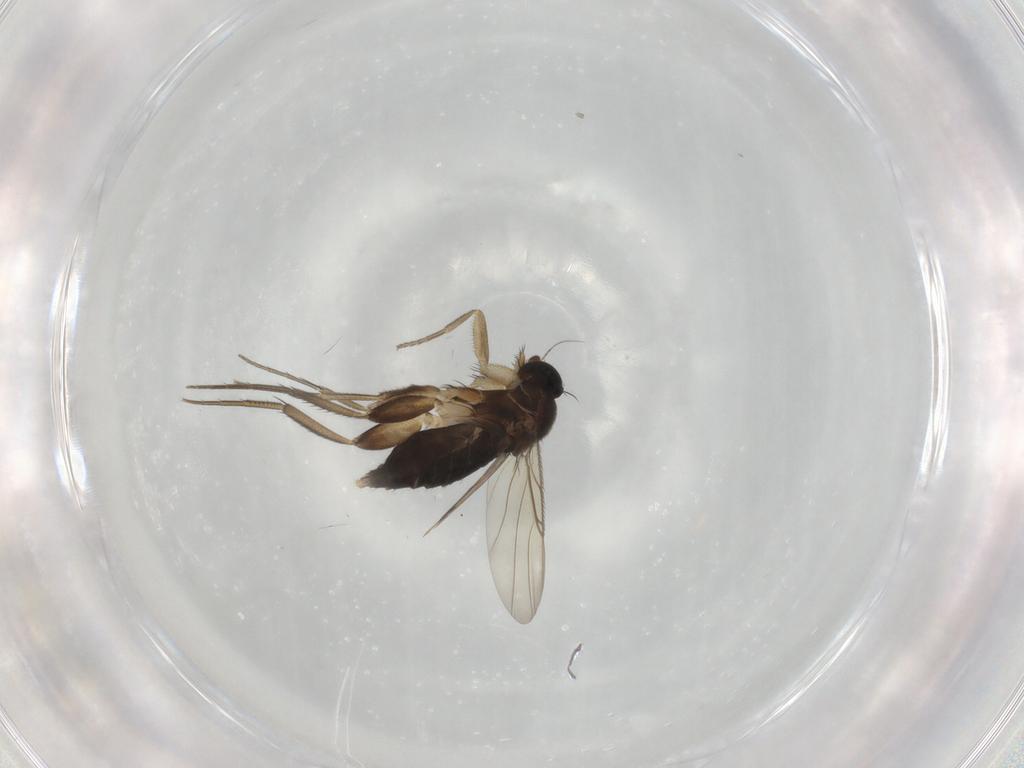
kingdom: Animalia
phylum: Arthropoda
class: Insecta
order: Diptera
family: Phoridae
